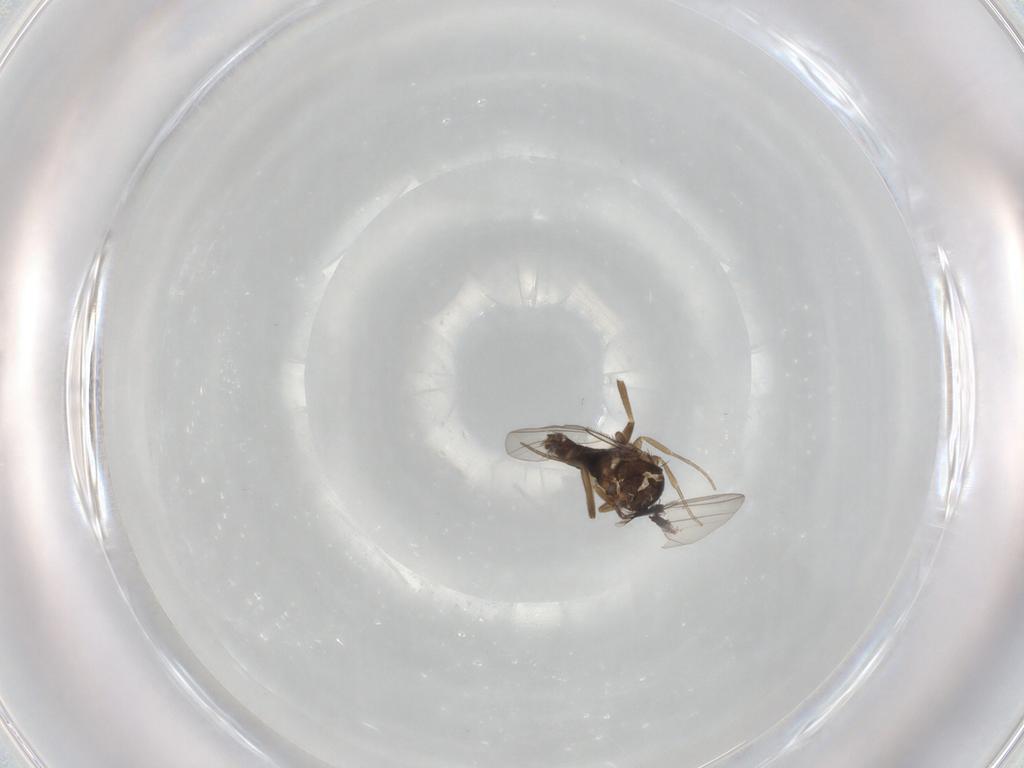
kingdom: Animalia
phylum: Arthropoda
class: Insecta
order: Diptera
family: Phoridae
